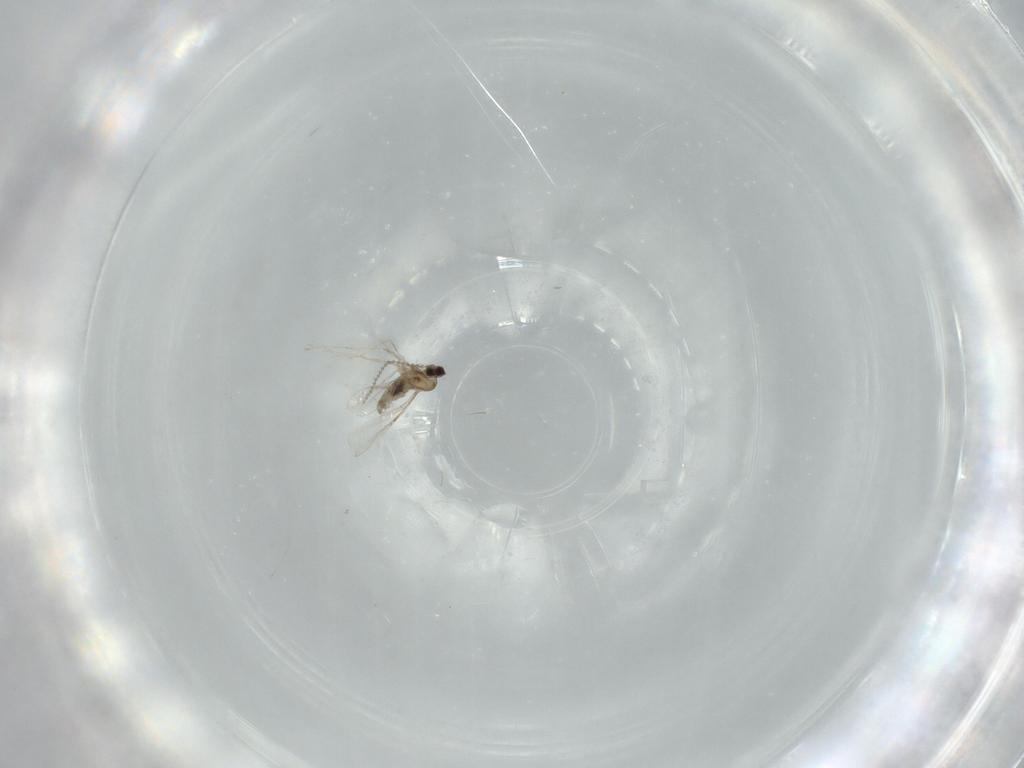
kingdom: Animalia
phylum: Arthropoda
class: Insecta
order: Diptera
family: Cecidomyiidae
